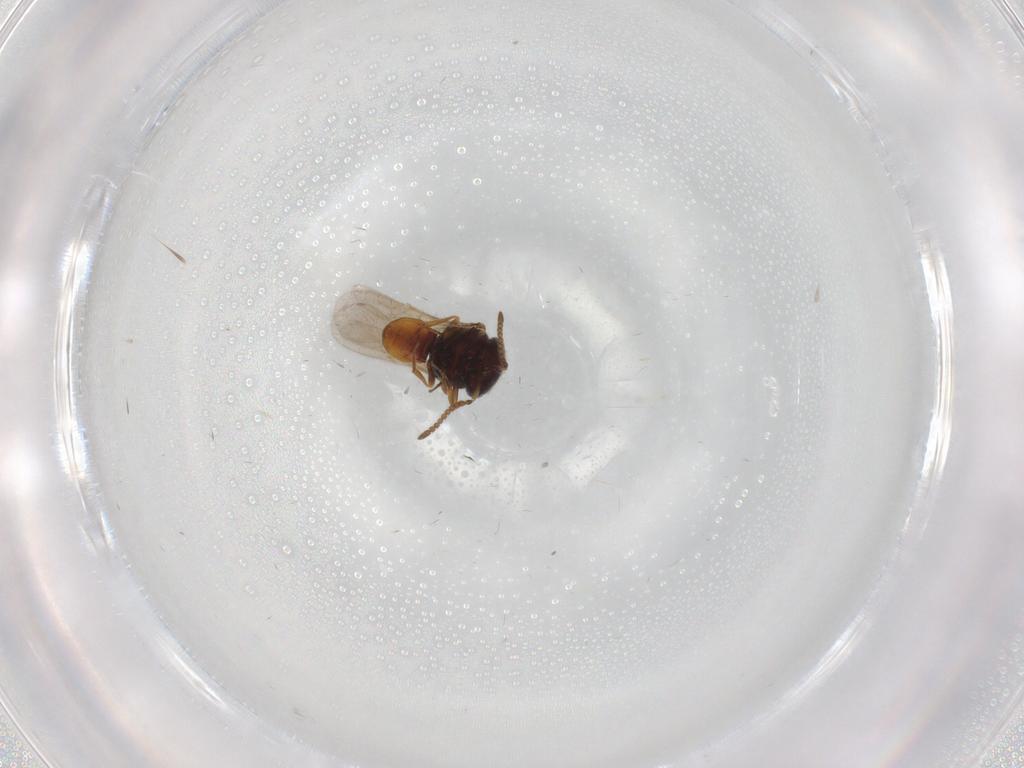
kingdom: Animalia
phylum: Arthropoda
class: Insecta
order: Hymenoptera
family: Scelionidae
